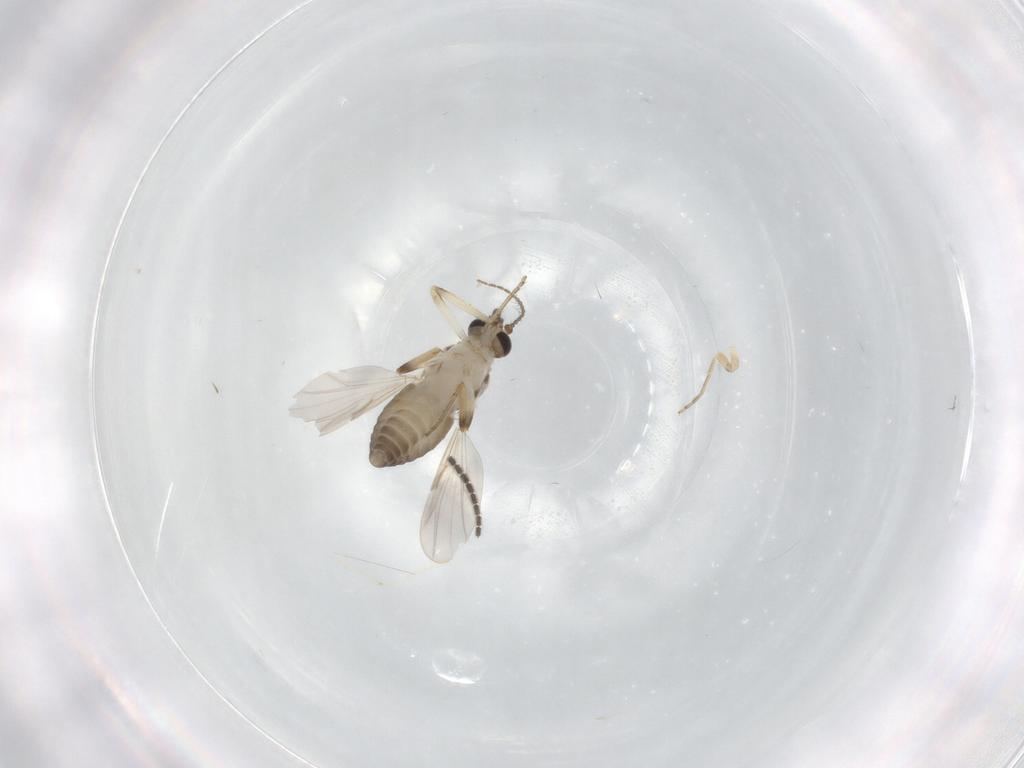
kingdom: Animalia
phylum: Arthropoda
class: Insecta
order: Diptera
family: Sciaridae
